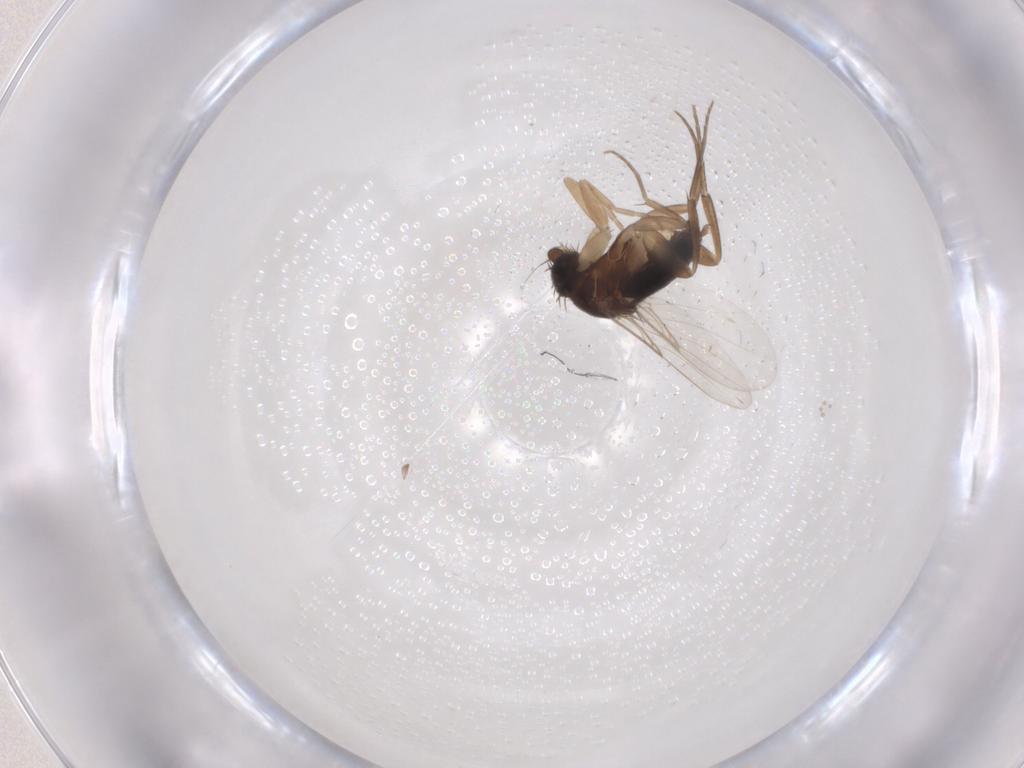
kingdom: Animalia
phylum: Arthropoda
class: Insecta
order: Diptera
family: Phoridae
